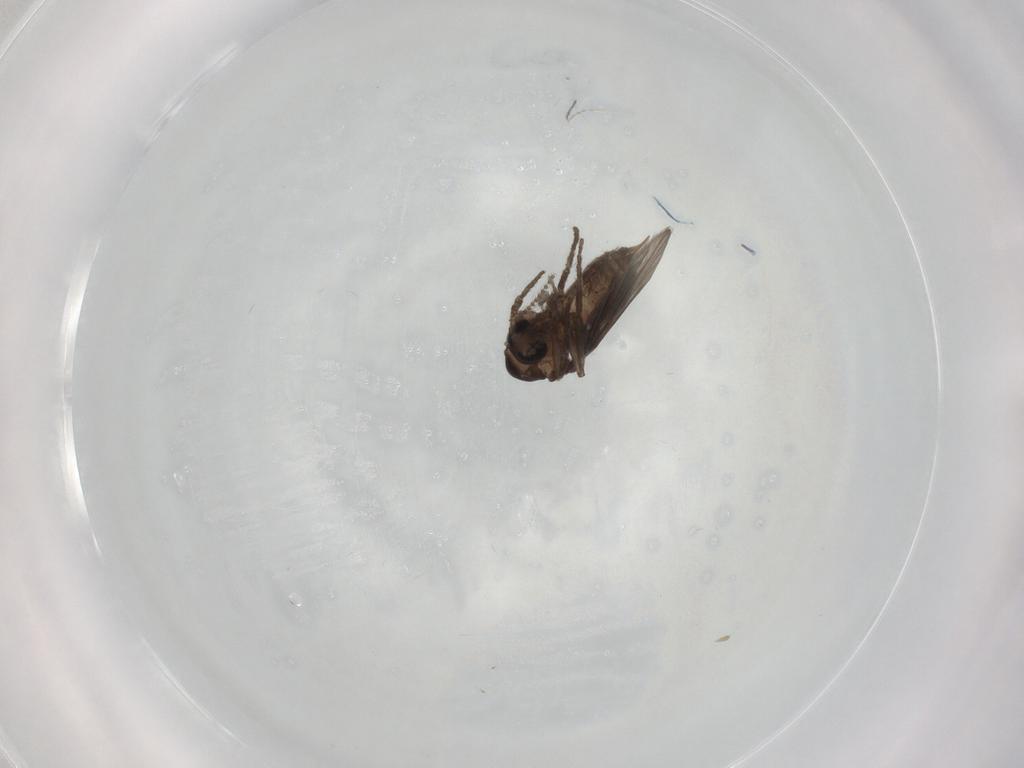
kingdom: Animalia
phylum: Arthropoda
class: Insecta
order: Diptera
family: Psychodidae
